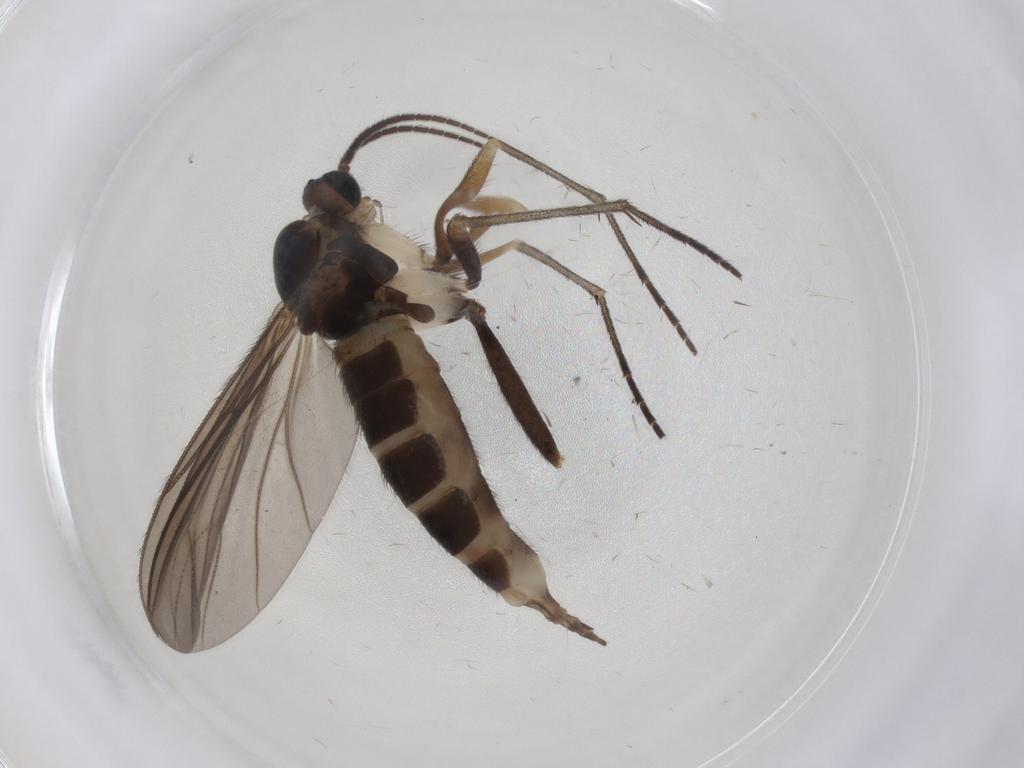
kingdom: Animalia
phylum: Arthropoda
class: Insecta
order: Diptera
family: Sciaridae
